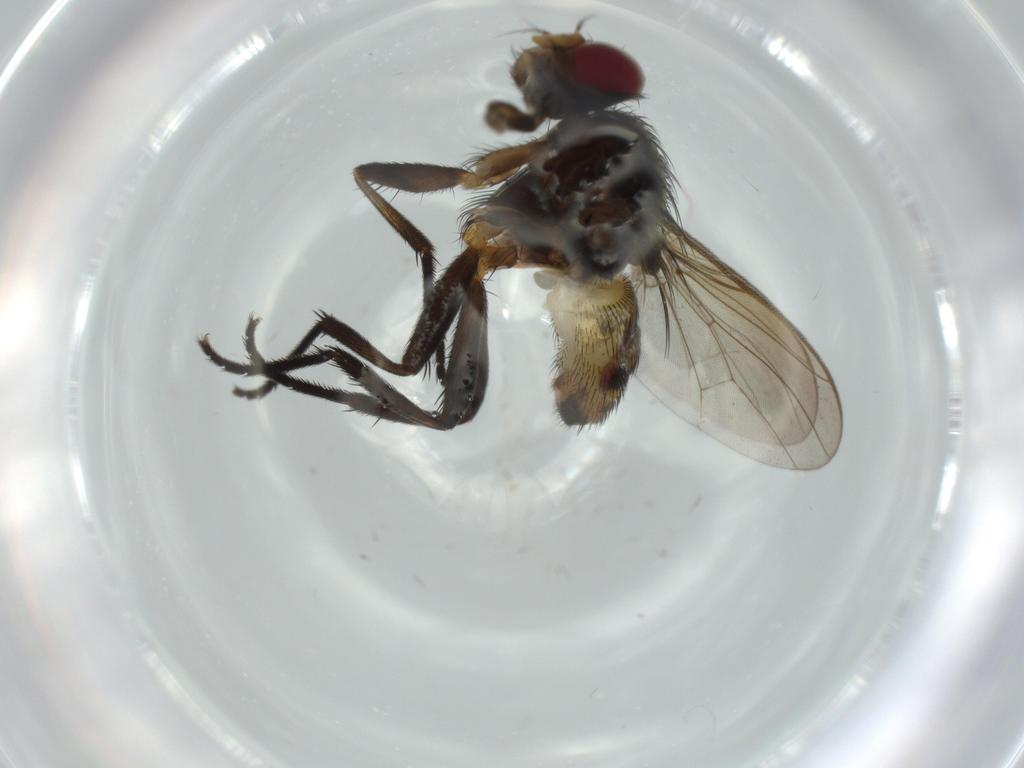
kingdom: Animalia
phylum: Arthropoda
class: Insecta
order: Diptera
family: Anthomyiidae
